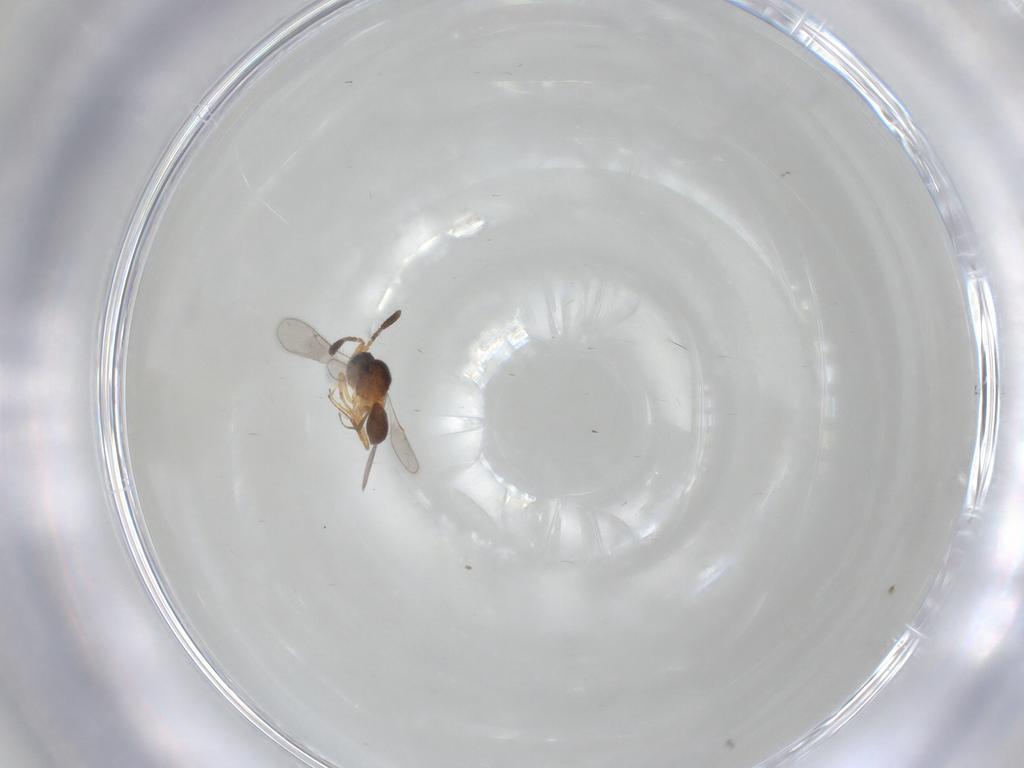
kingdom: Animalia
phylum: Arthropoda
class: Insecta
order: Hymenoptera
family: Scelionidae
